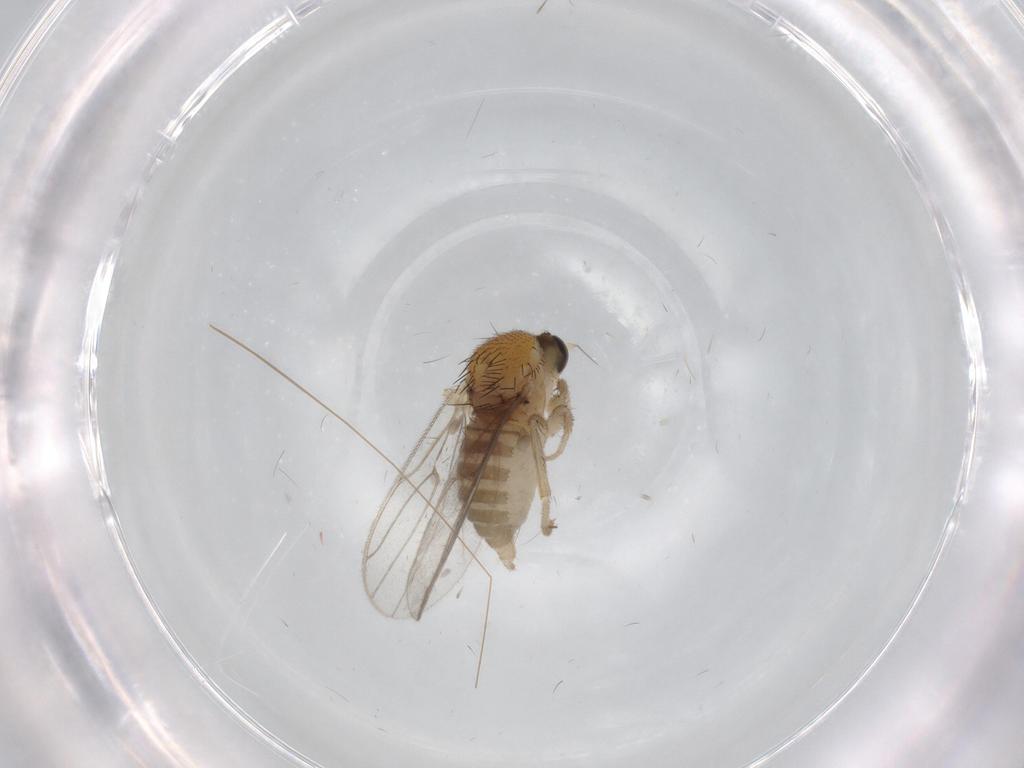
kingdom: Animalia
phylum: Arthropoda
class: Insecta
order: Diptera
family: Hybotidae
